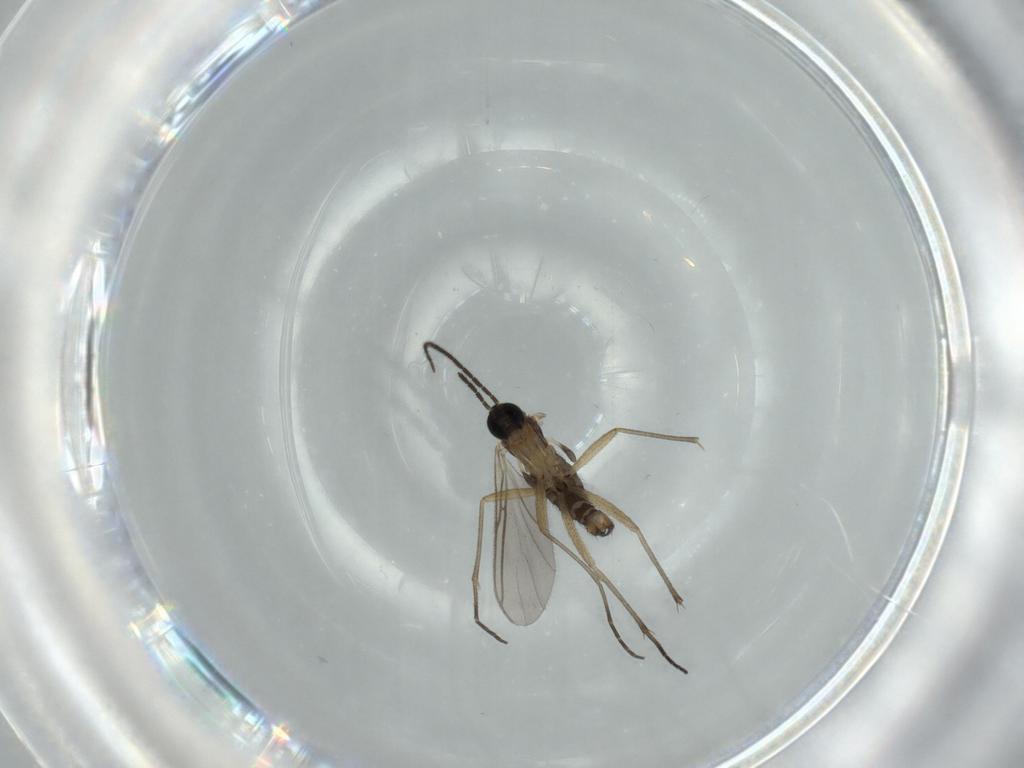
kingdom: Animalia
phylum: Arthropoda
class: Insecta
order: Diptera
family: Sciaridae
